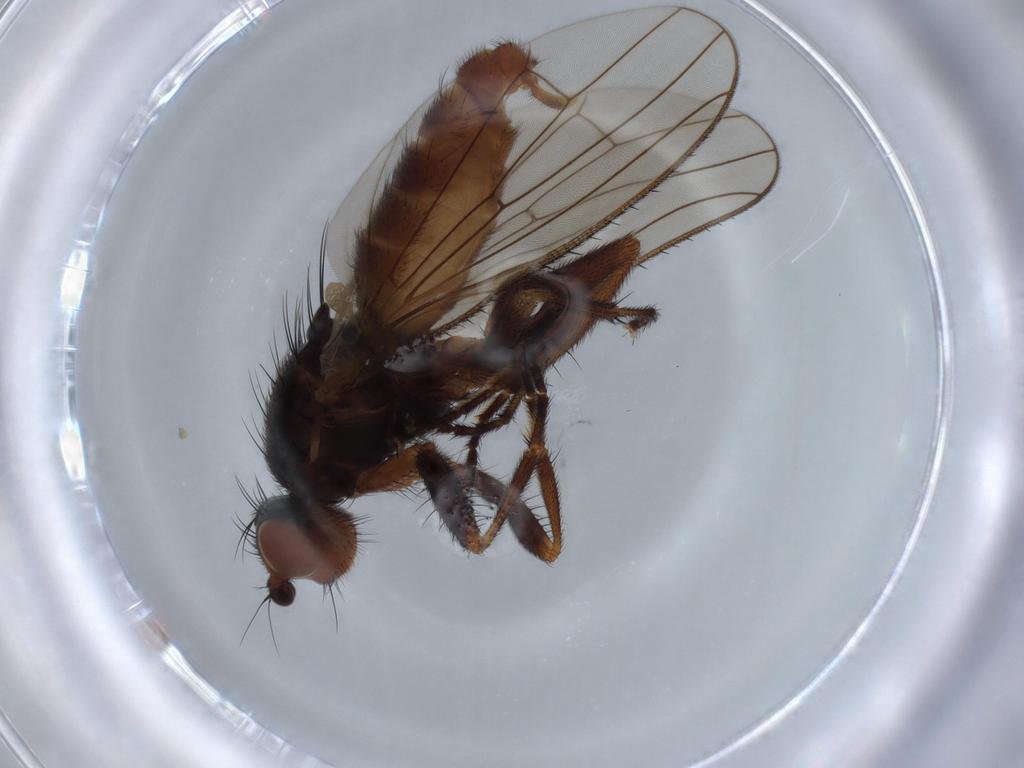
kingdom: Animalia
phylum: Arthropoda
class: Insecta
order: Diptera
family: Heleomyzidae
